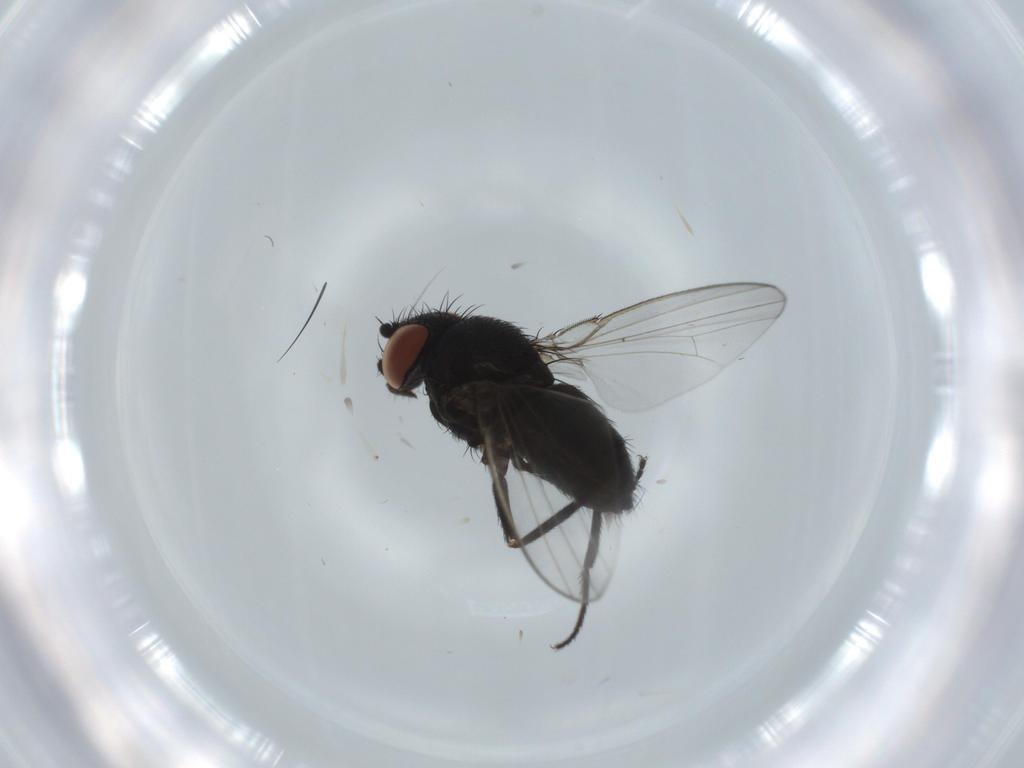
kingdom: Animalia
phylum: Arthropoda
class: Insecta
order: Diptera
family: Milichiidae
